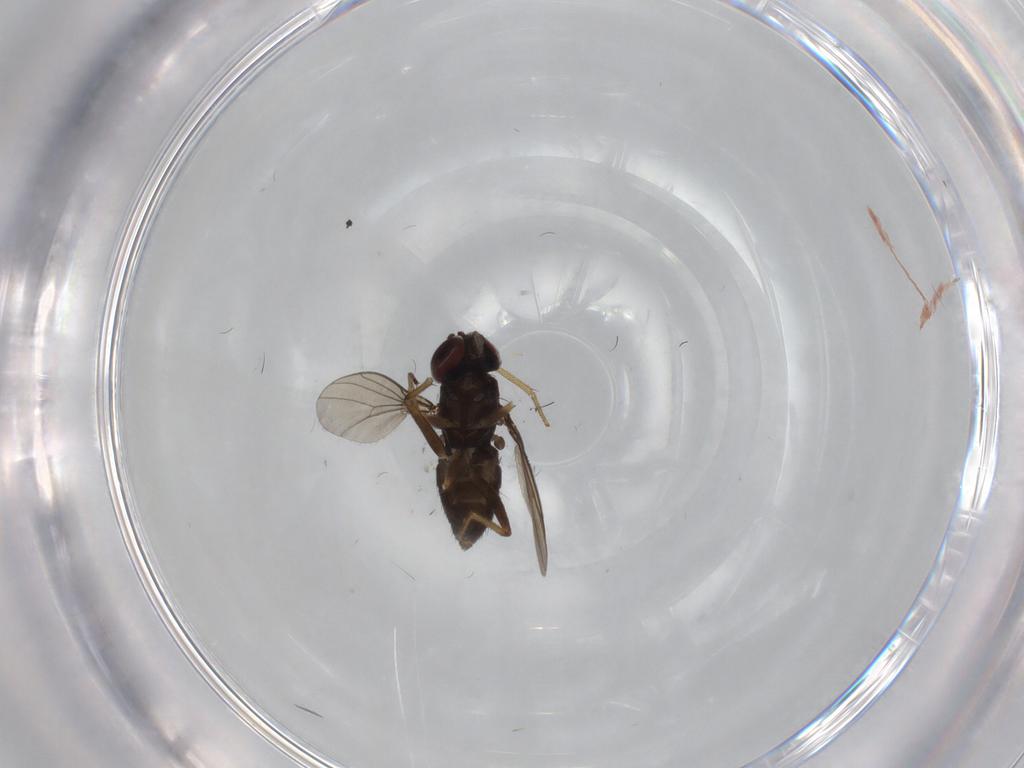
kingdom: Animalia
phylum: Arthropoda
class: Insecta
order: Diptera
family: Dolichopodidae
